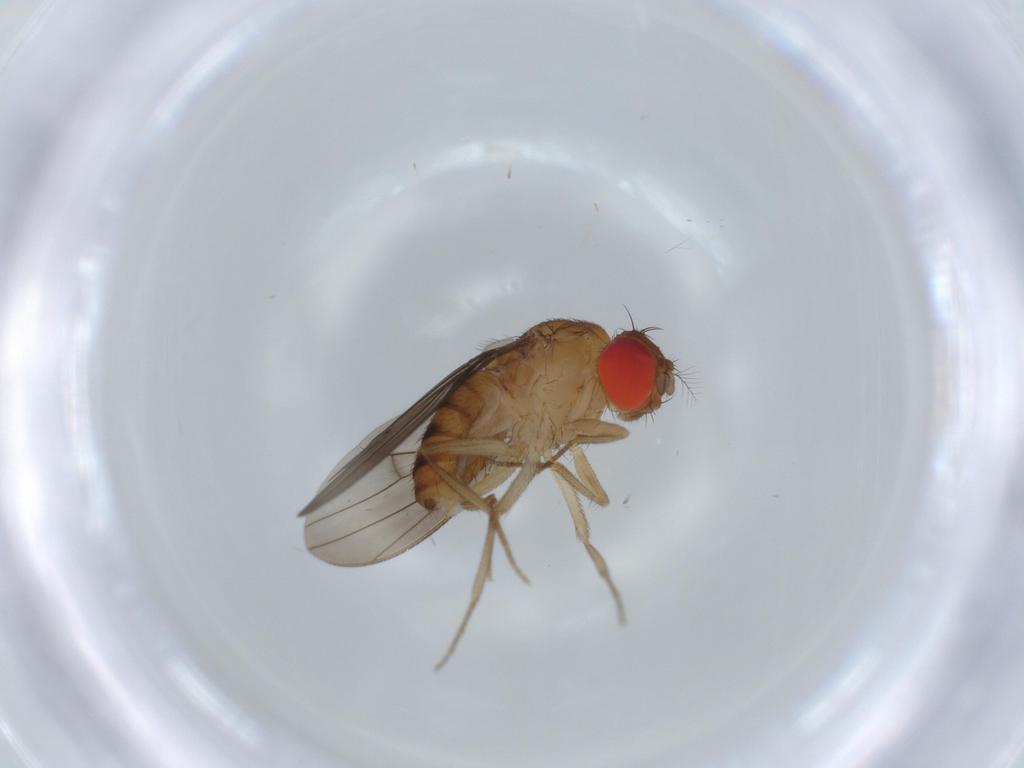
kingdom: Animalia
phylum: Arthropoda
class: Insecta
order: Diptera
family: Drosophilidae
